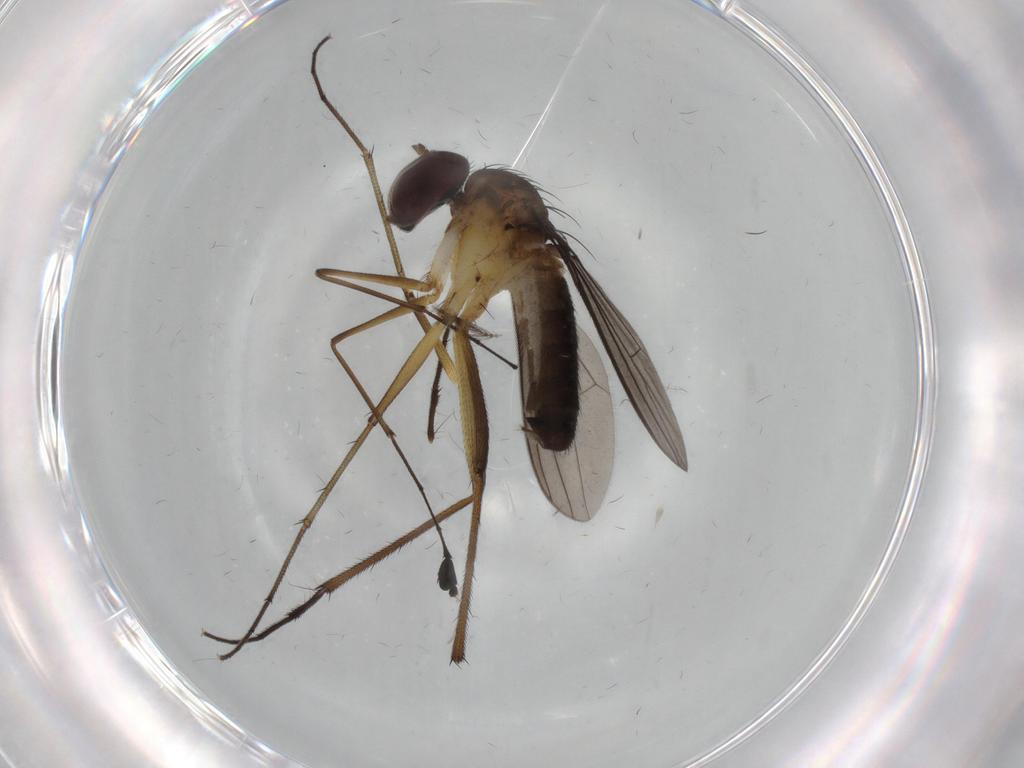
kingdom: Animalia
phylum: Arthropoda
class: Insecta
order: Diptera
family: Dolichopodidae
